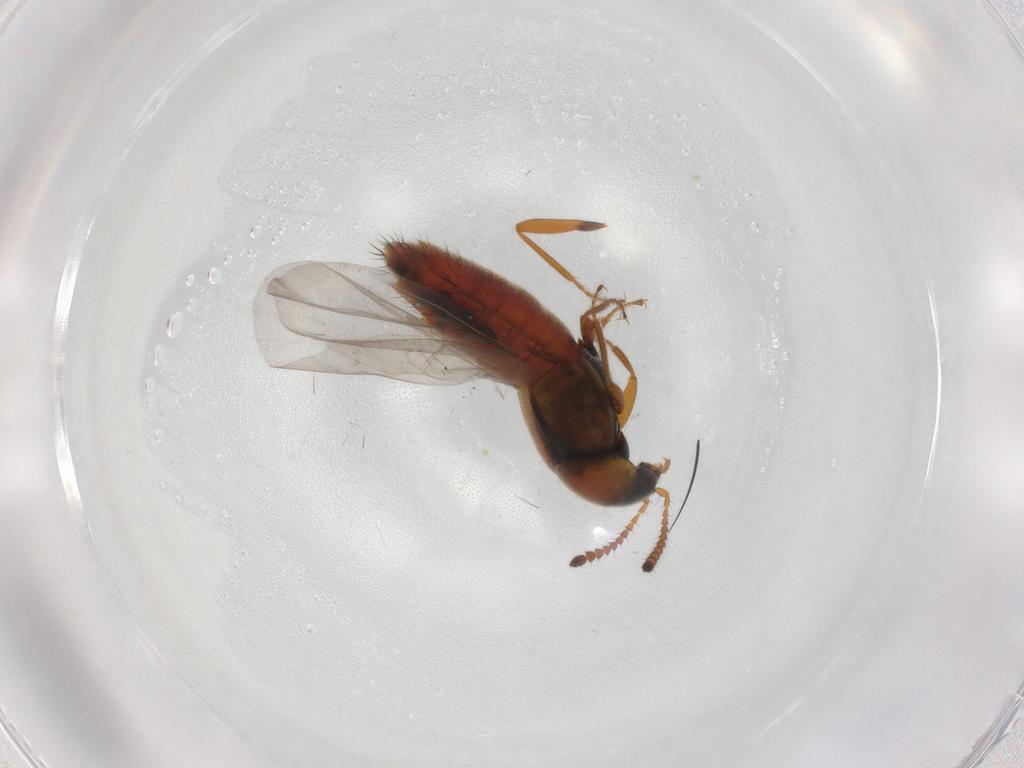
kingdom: Animalia
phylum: Arthropoda
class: Insecta
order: Coleoptera
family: Staphylinidae
